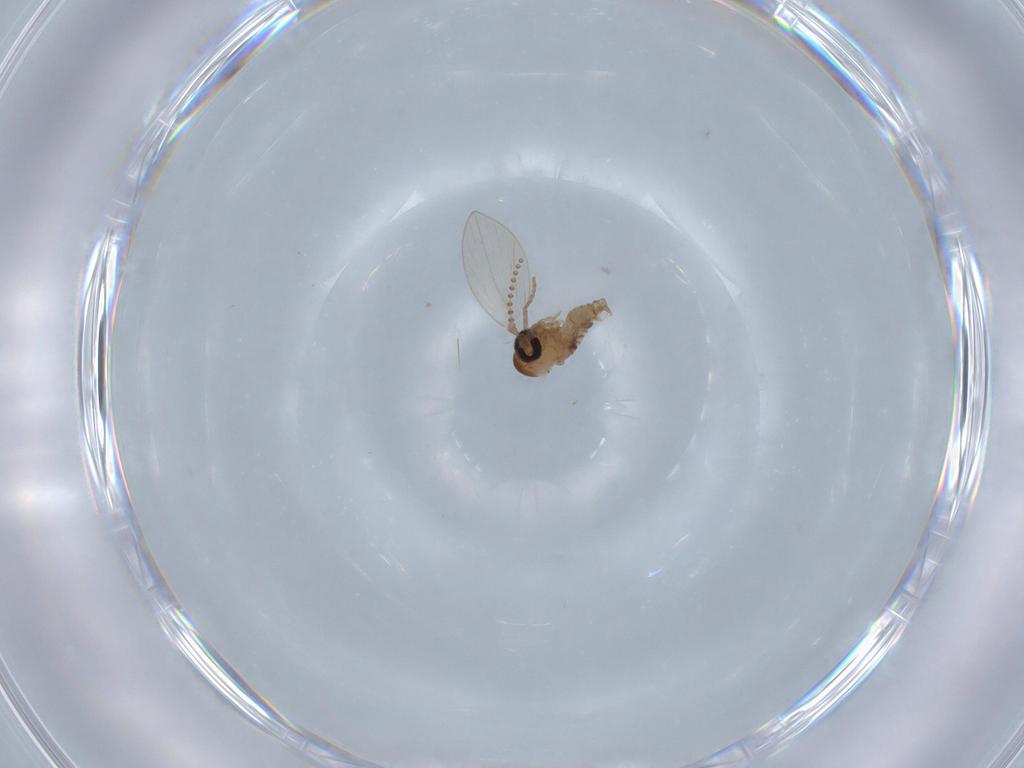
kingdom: Animalia
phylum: Arthropoda
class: Insecta
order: Diptera
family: Psychodidae
